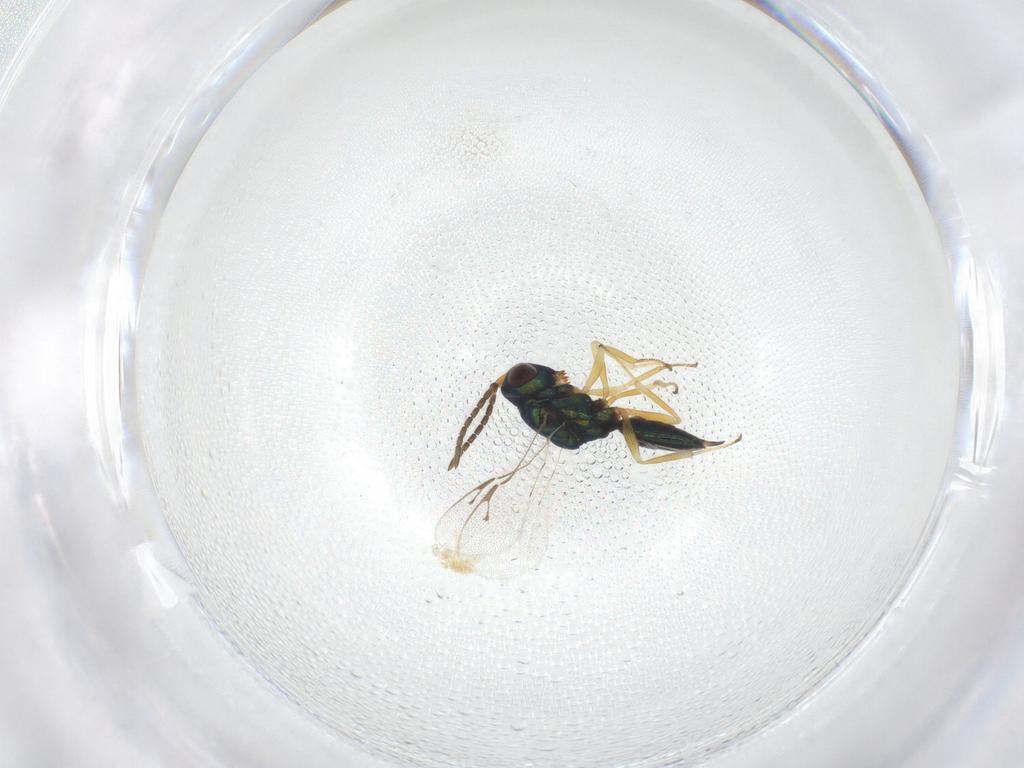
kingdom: Animalia
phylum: Arthropoda
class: Insecta
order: Hymenoptera
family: Pteromalidae
